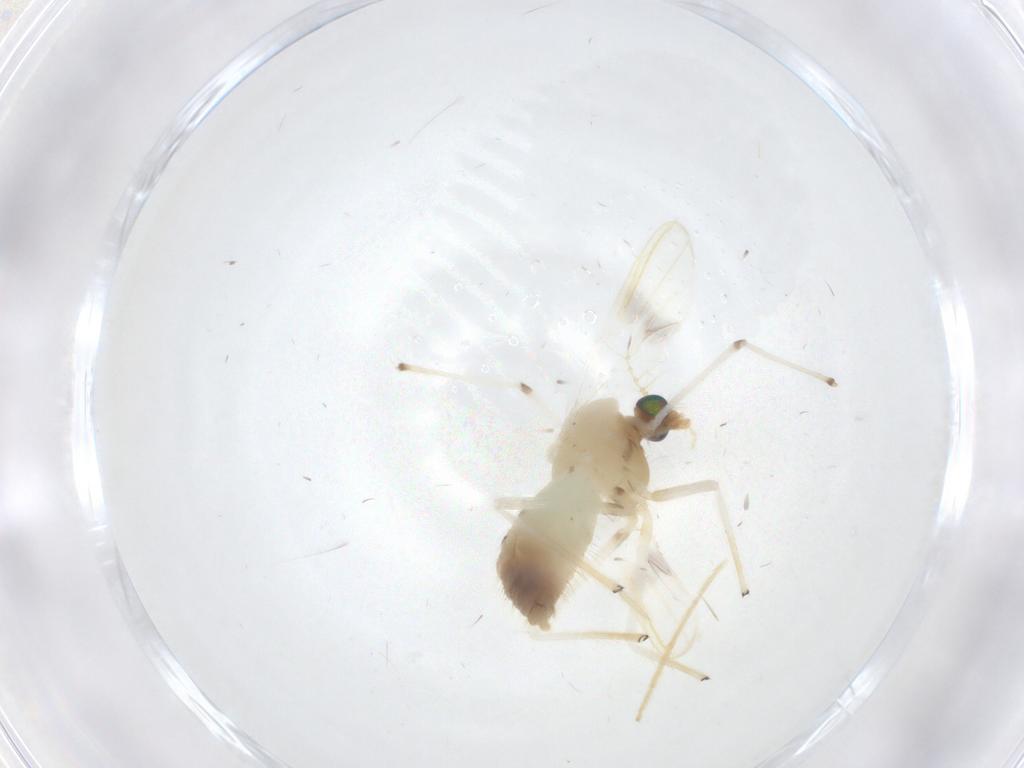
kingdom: Animalia
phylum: Arthropoda
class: Insecta
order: Diptera
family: Chironomidae
